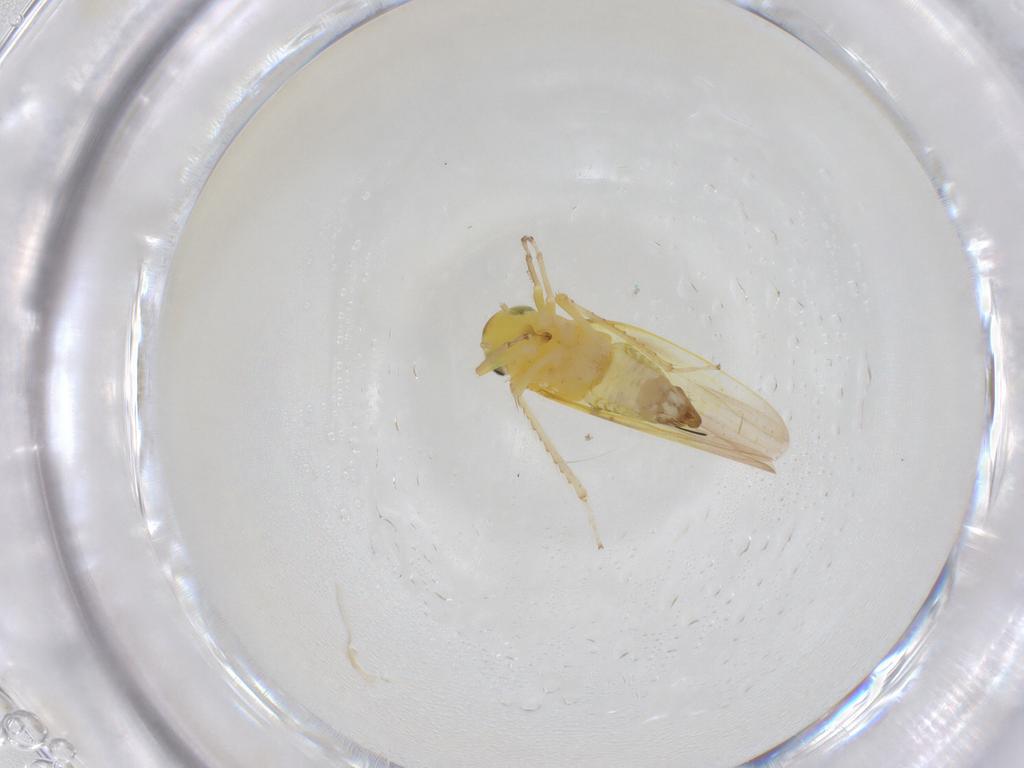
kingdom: Animalia
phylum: Arthropoda
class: Insecta
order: Hemiptera
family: Cicadellidae
